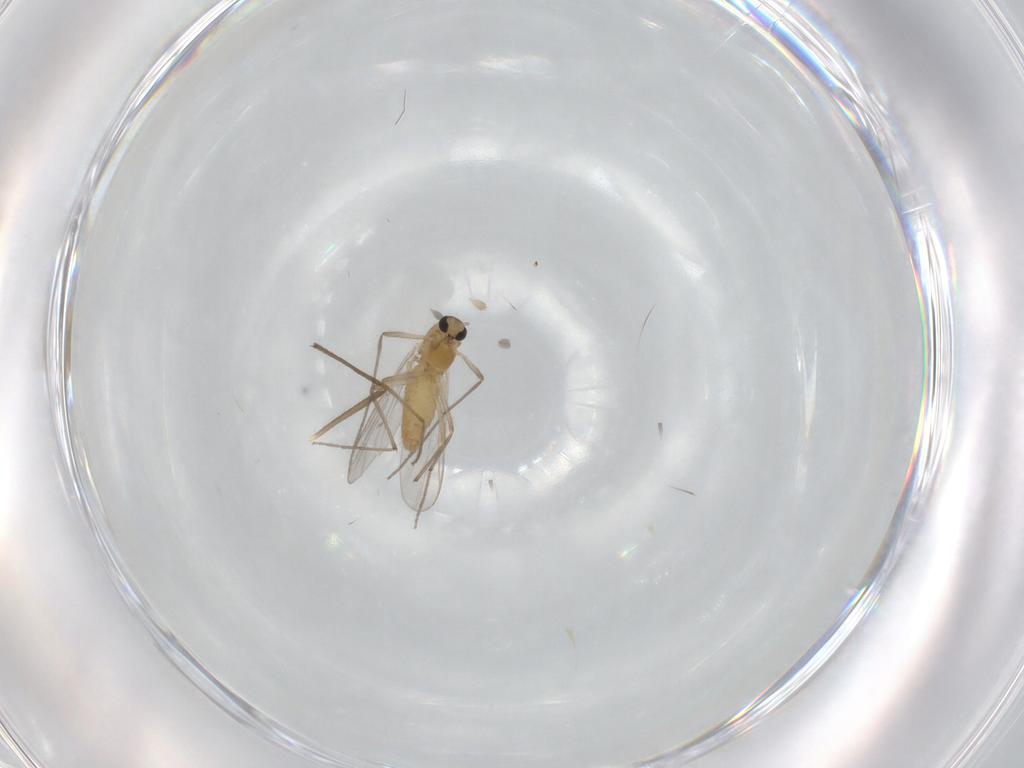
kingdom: Animalia
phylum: Arthropoda
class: Insecta
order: Diptera
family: Chironomidae
